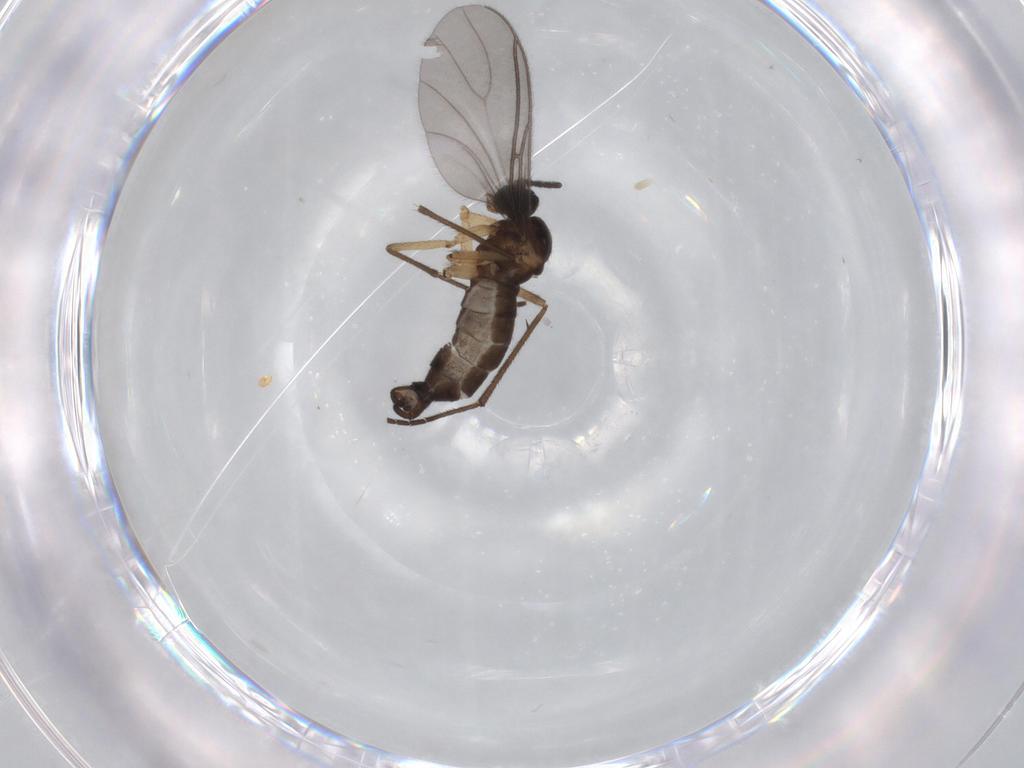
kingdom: Animalia
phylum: Arthropoda
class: Insecta
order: Diptera
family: Sciaridae
